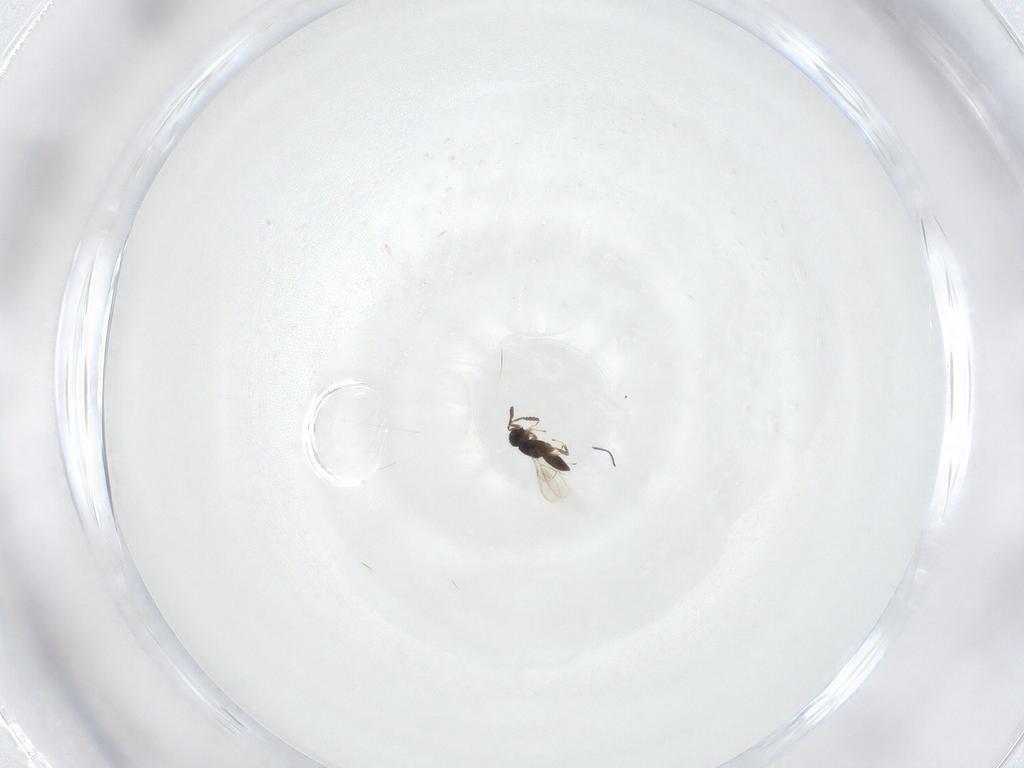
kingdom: Animalia
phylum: Arthropoda
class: Insecta
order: Hymenoptera
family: Scelionidae
